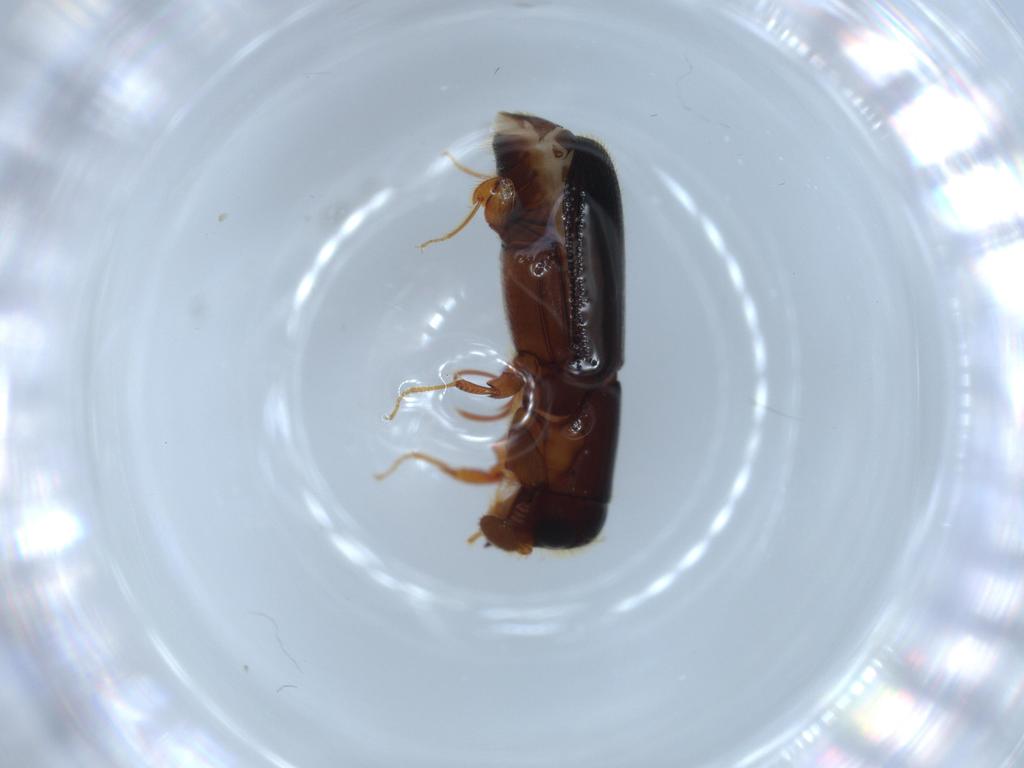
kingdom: Animalia
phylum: Arthropoda
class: Insecta
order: Coleoptera
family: Curculionidae
